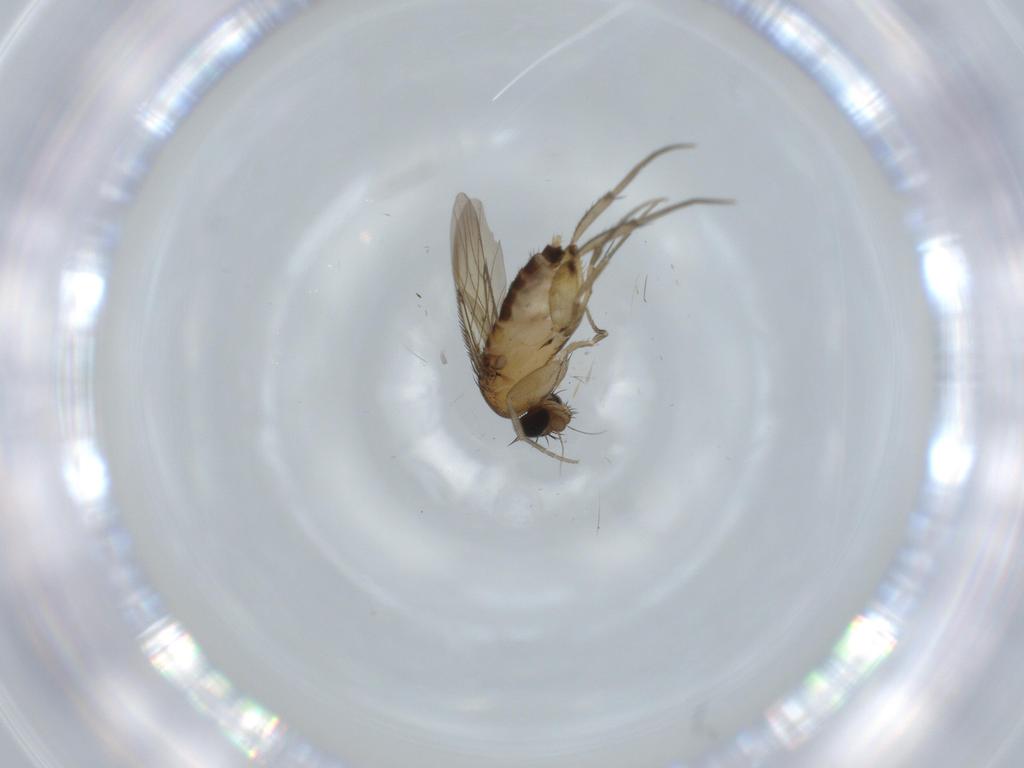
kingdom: Animalia
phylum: Arthropoda
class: Insecta
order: Diptera
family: Phoridae
